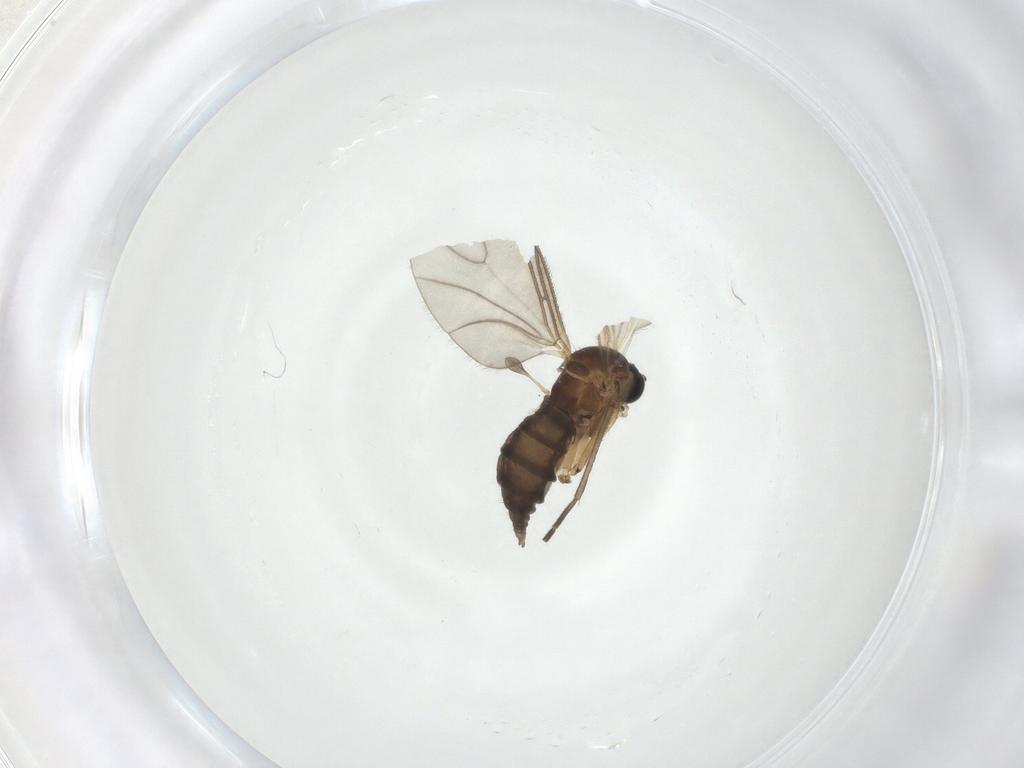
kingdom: Animalia
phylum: Arthropoda
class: Insecta
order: Diptera
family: Sciaridae
